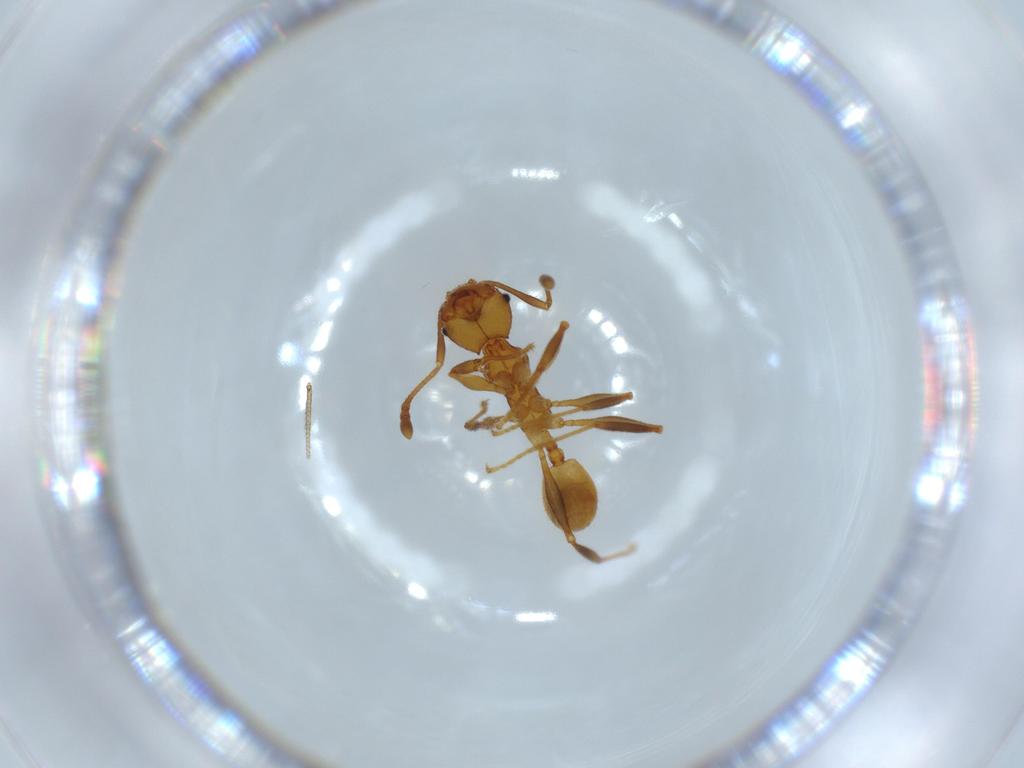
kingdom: Animalia
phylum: Arthropoda
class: Insecta
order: Hymenoptera
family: Formicidae
